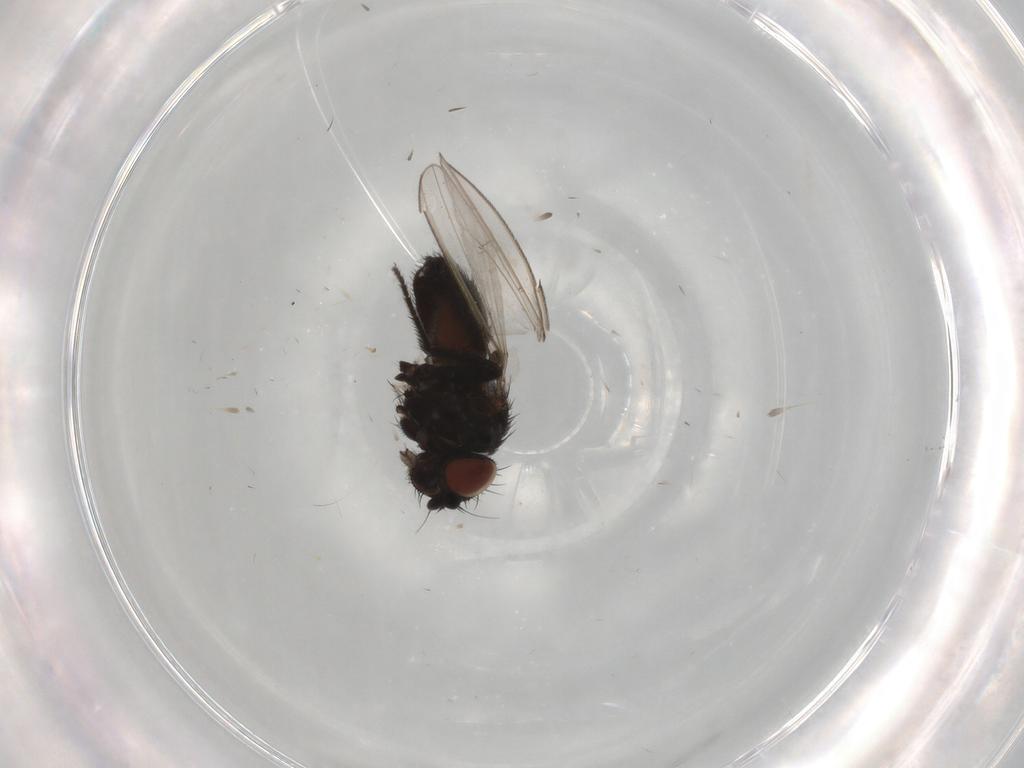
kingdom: Animalia
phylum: Arthropoda
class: Insecta
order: Diptera
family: Milichiidae
